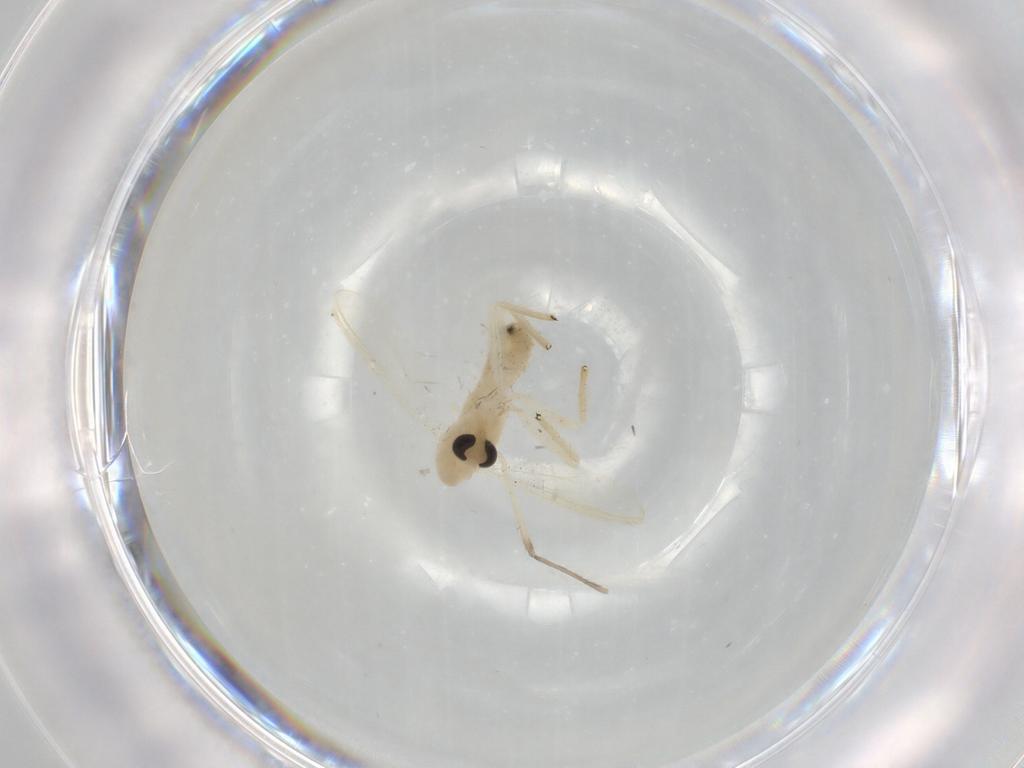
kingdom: Animalia
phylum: Arthropoda
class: Insecta
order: Diptera
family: Chironomidae
